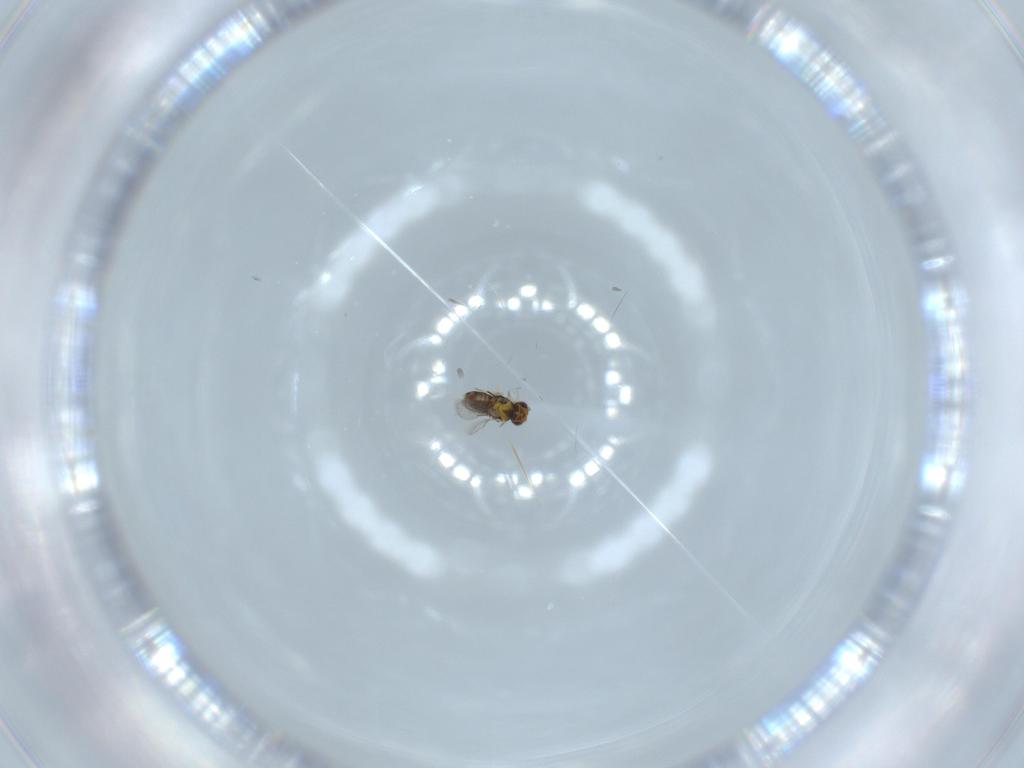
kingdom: Animalia
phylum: Arthropoda
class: Insecta
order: Hymenoptera
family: Aphelinidae
